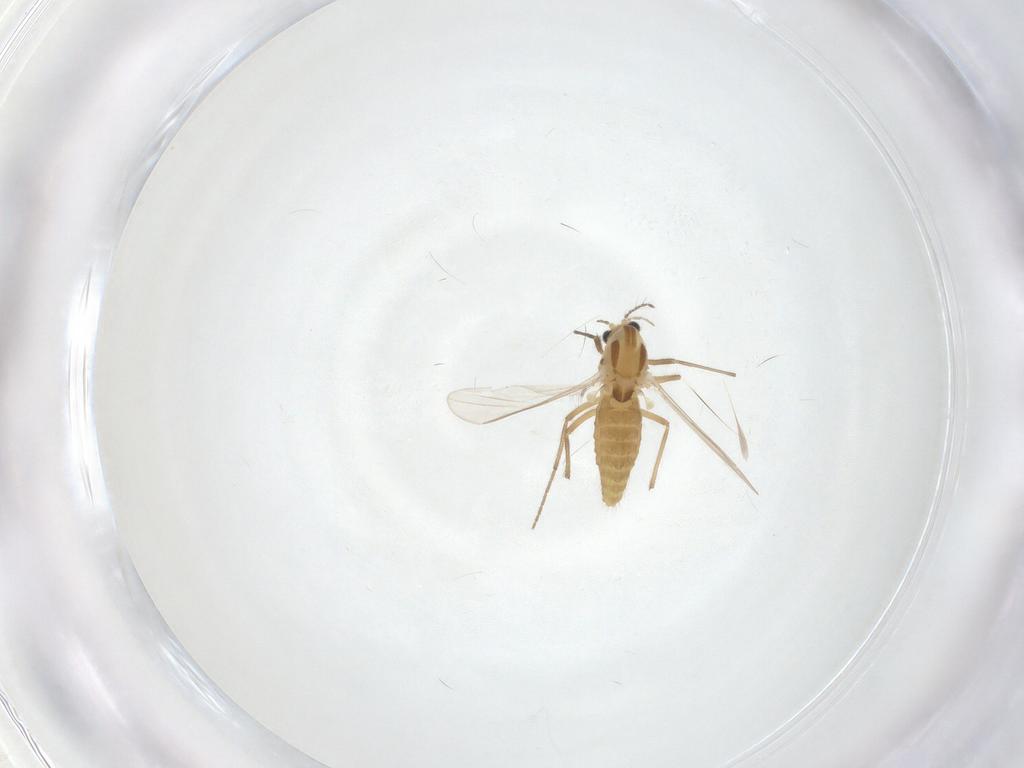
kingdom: Animalia
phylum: Arthropoda
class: Insecta
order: Diptera
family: Chironomidae
